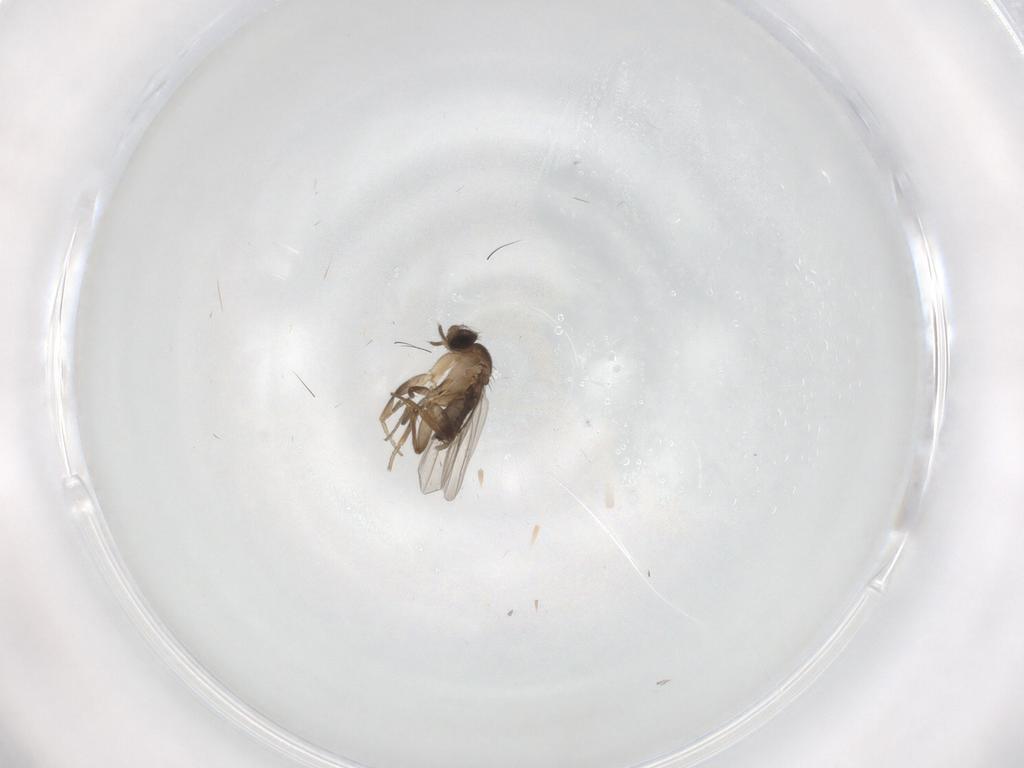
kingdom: Animalia
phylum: Arthropoda
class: Insecta
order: Diptera
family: Phoridae
